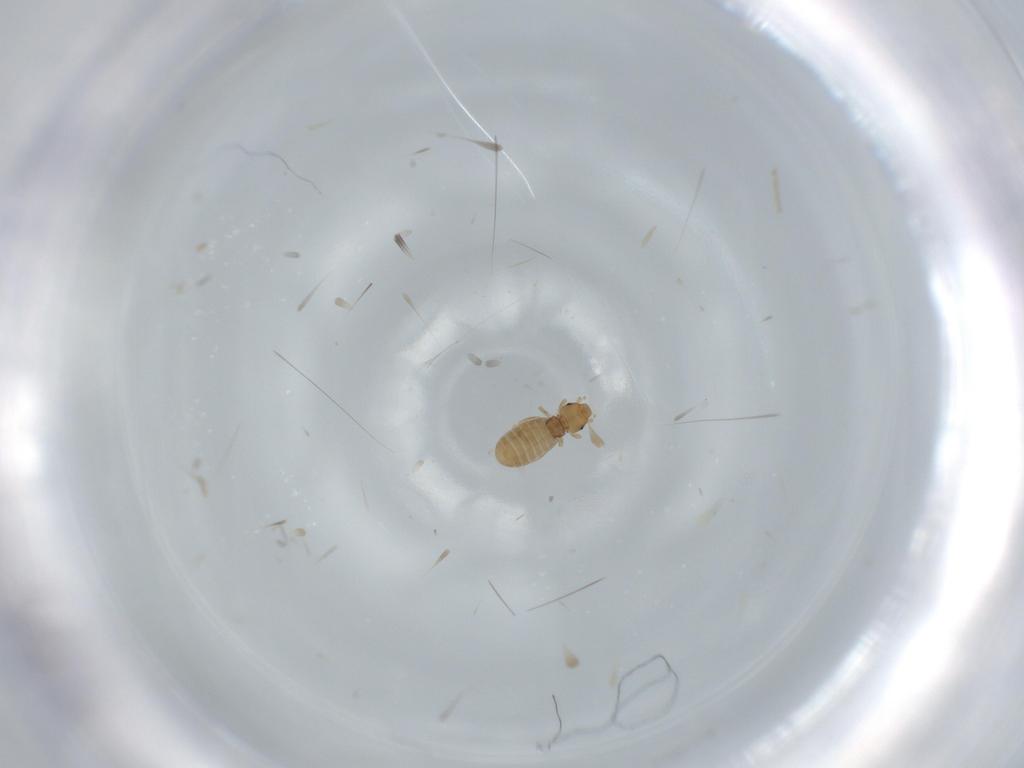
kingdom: Animalia
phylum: Arthropoda
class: Insecta
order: Psocodea
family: Liposcelididae
